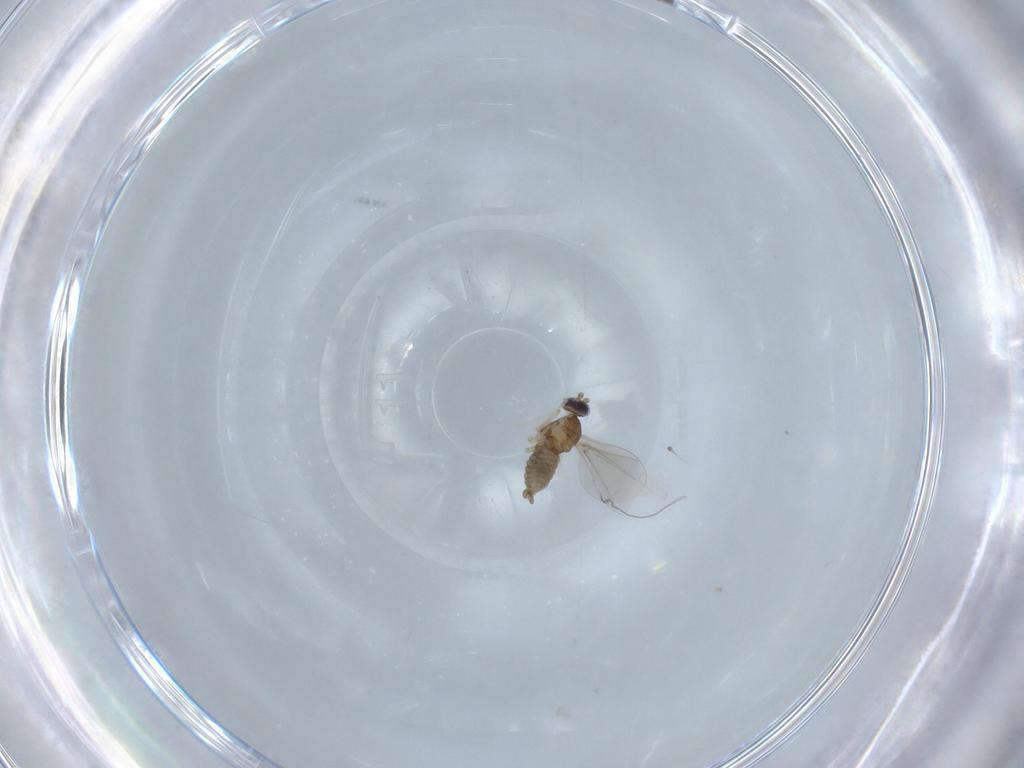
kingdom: Animalia
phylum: Arthropoda
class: Insecta
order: Diptera
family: Cecidomyiidae
